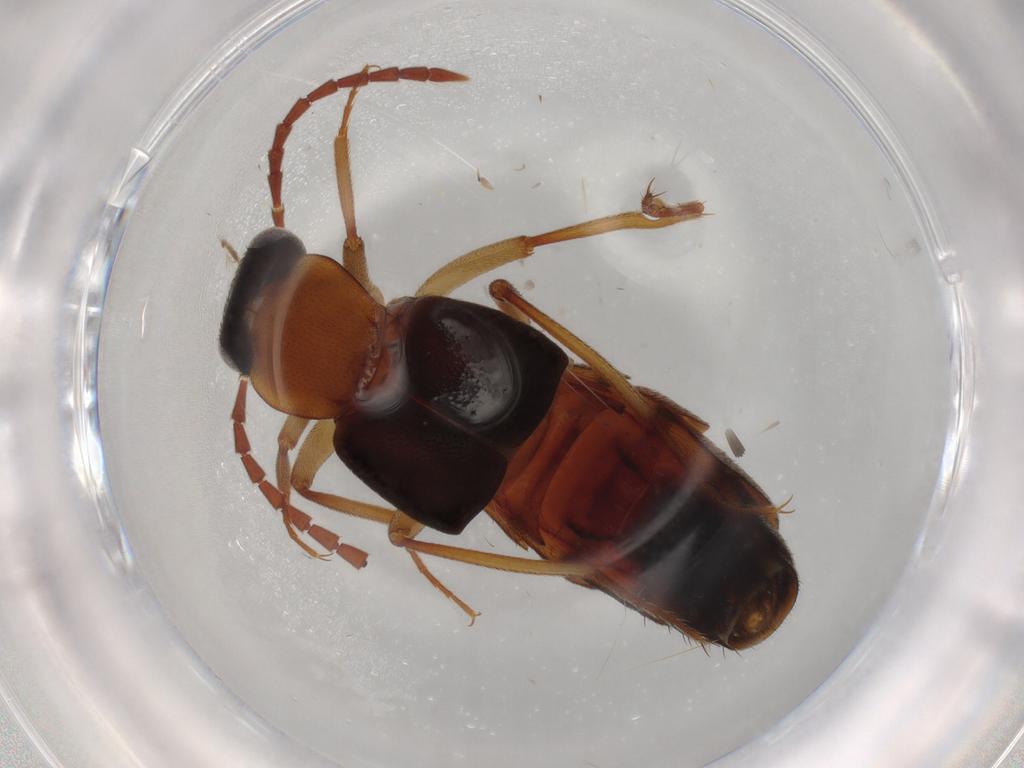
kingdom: Animalia
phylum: Arthropoda
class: Insecta
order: Coleoptera
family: Staphylinidae
